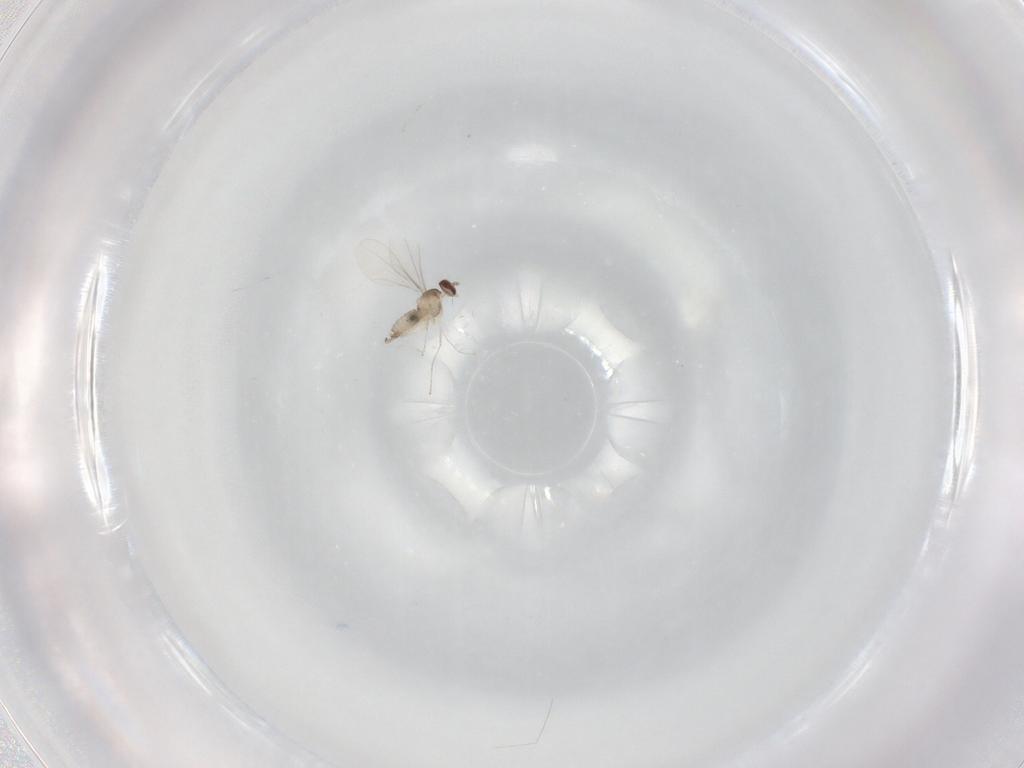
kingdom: Animalia
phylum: Arthropoda
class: Insecta
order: Diptera
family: Cecidomyiidae
